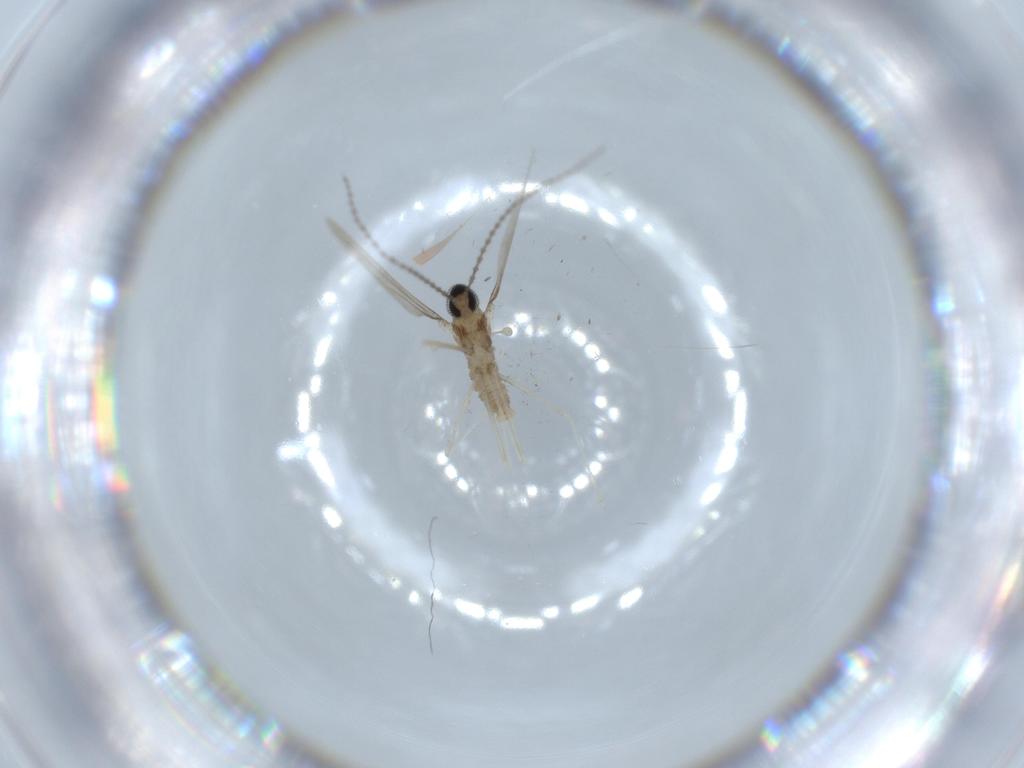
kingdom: Animalia
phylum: Arthropoda
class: Insecta
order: Diptera
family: Cecidomyiidae
